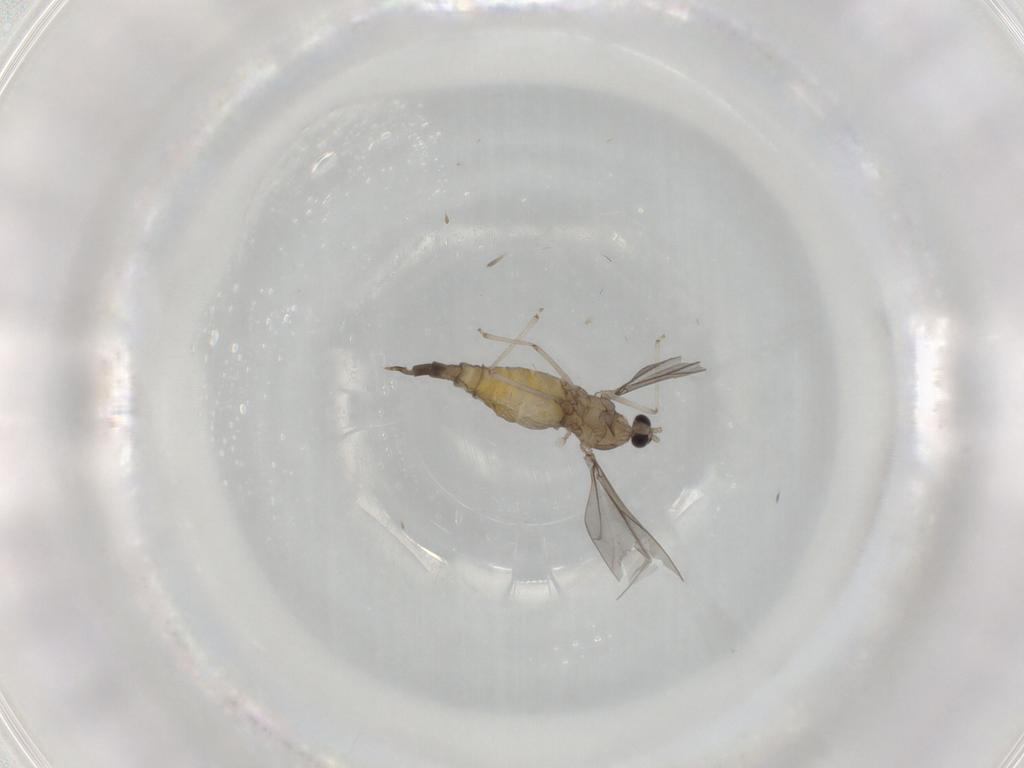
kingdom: Animalia
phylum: Arthropoda
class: Insecta
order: Diptera
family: Cecidomyiidae
